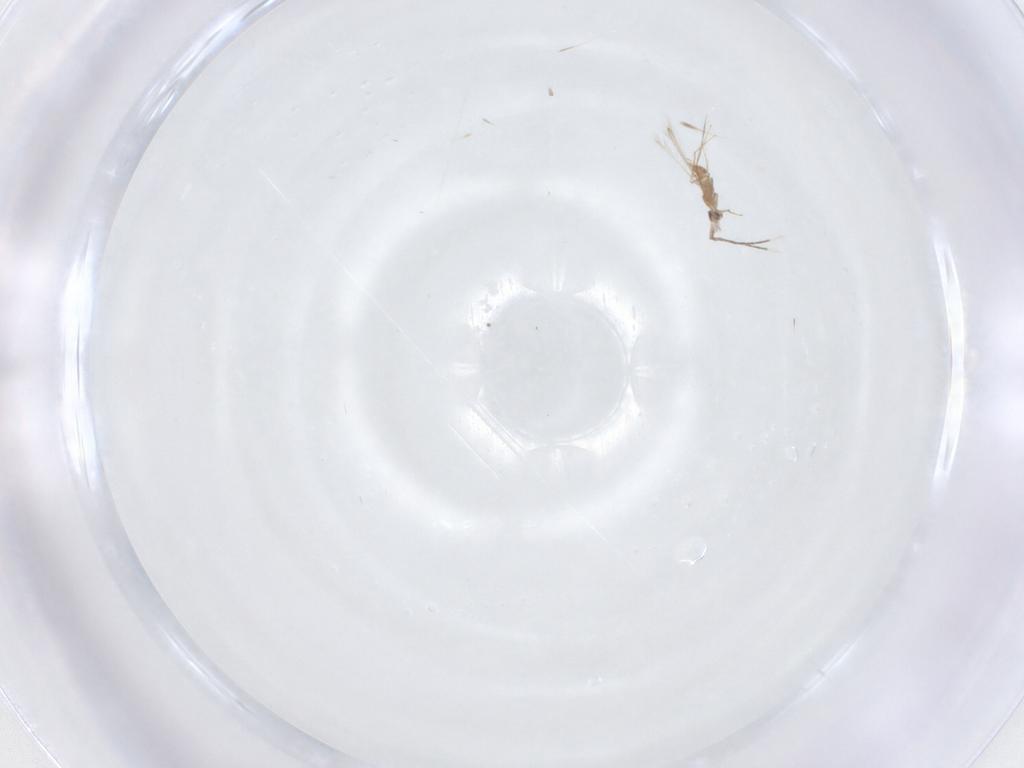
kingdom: Animalia
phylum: Arthropoda
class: Insecta
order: Hymenoptera
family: Mymaridae
